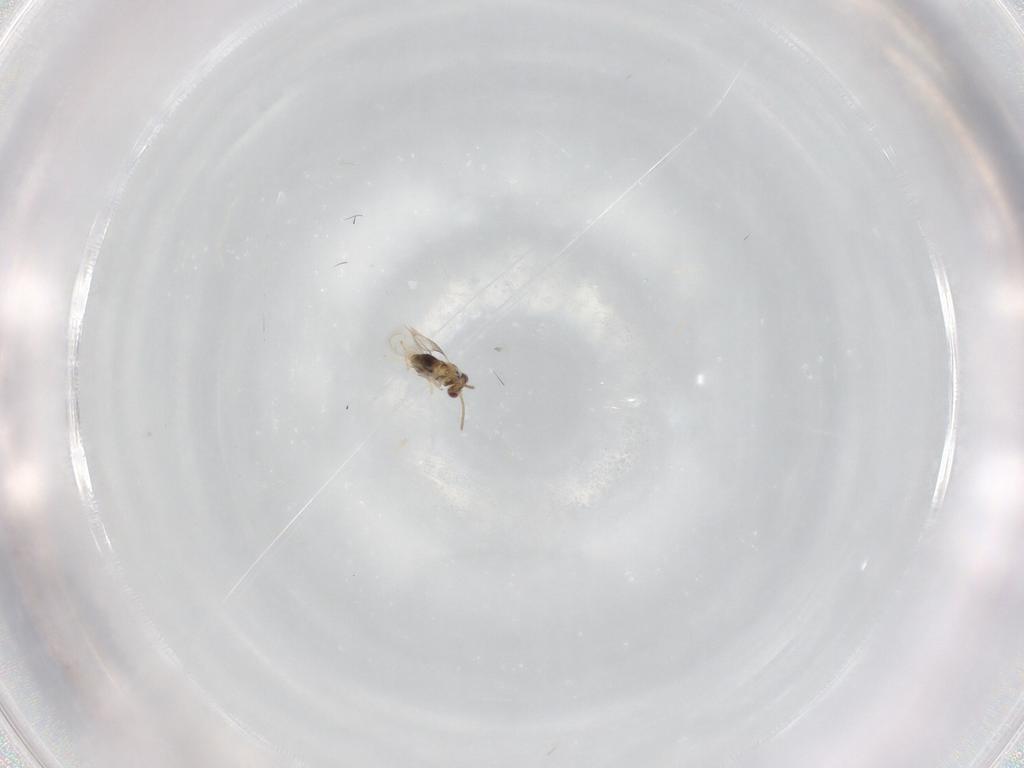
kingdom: Animalia
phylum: Arthropoda
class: Insecta
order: Hymenoptera
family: Aphelinidae
